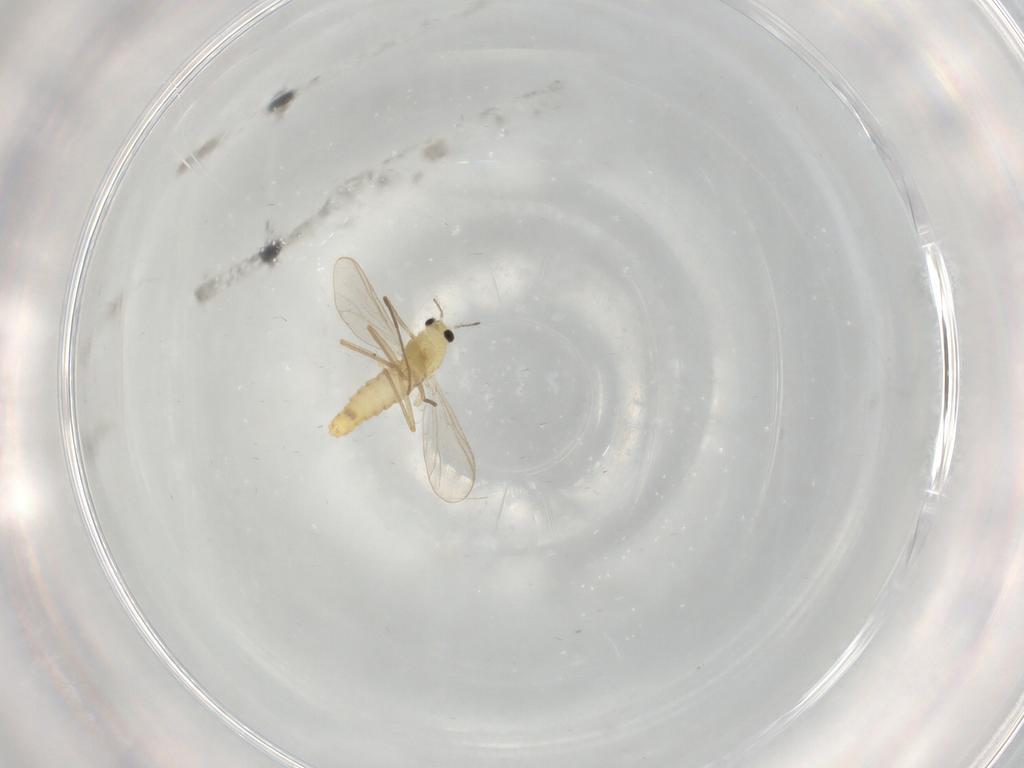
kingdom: Animalia
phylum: Arthropoda
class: Insecta
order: Diptera
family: Chironomidae
